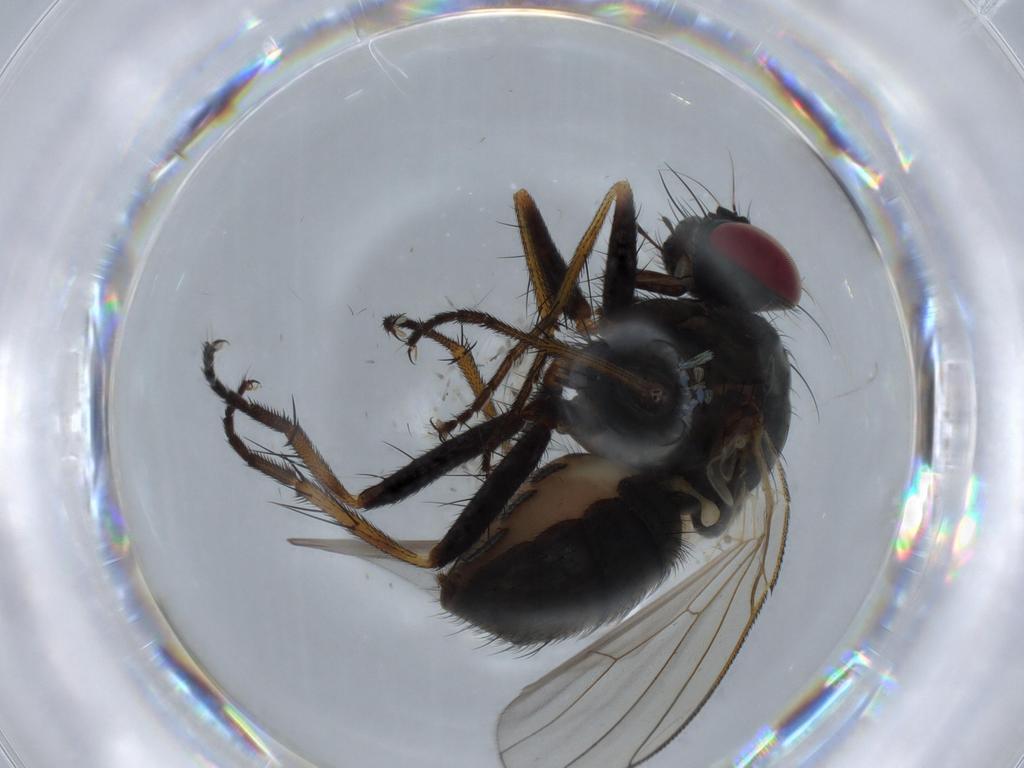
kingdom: Animalia
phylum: Arthropoda
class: Insecta
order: Diptera
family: Muscidae
